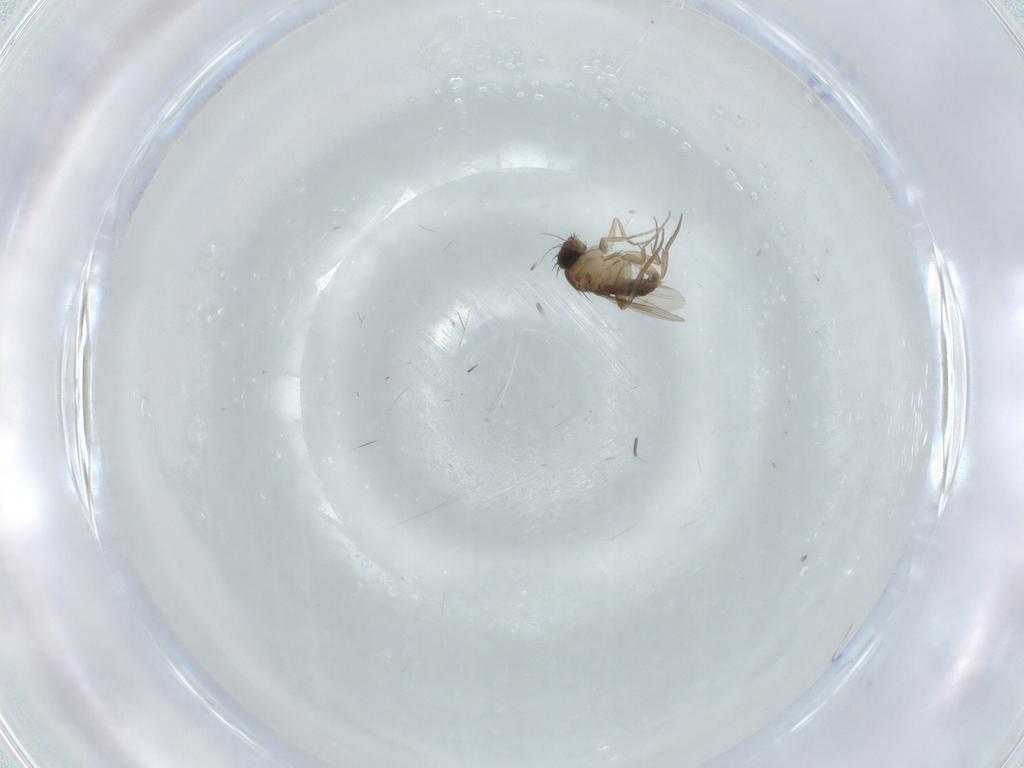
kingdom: Animalia
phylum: Arthropoda
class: Insecta
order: Diptera
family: Phoridae
